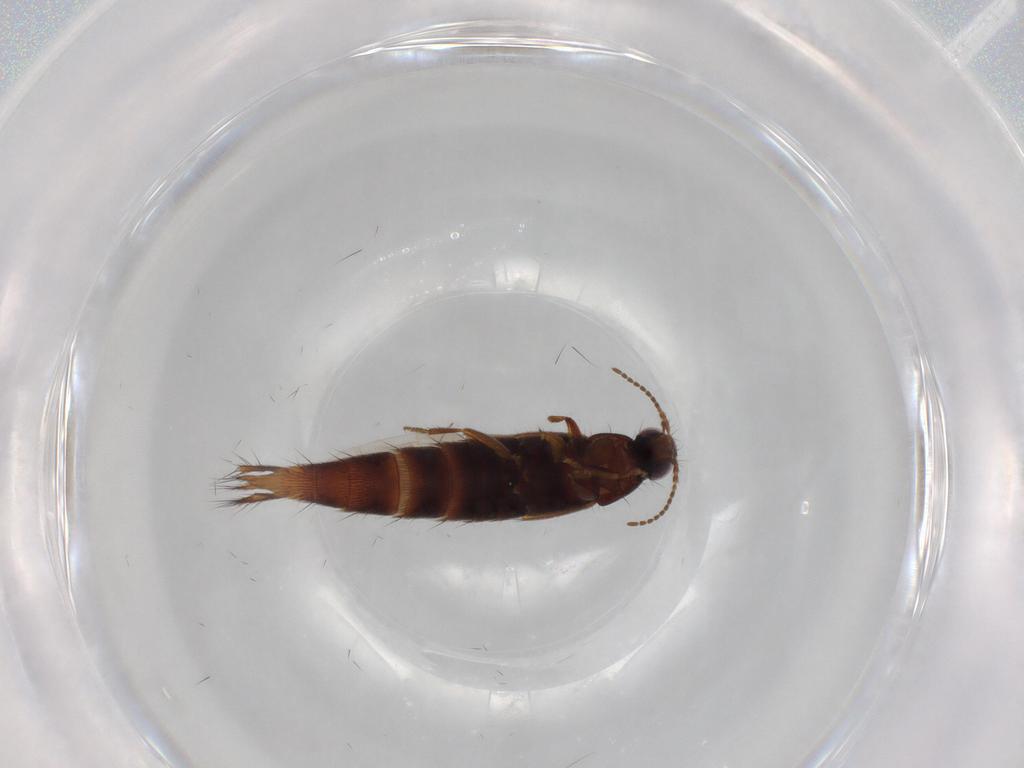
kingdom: Animalia
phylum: Arthropoda
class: Insecta
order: Coleoptera
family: Staphylinidae
